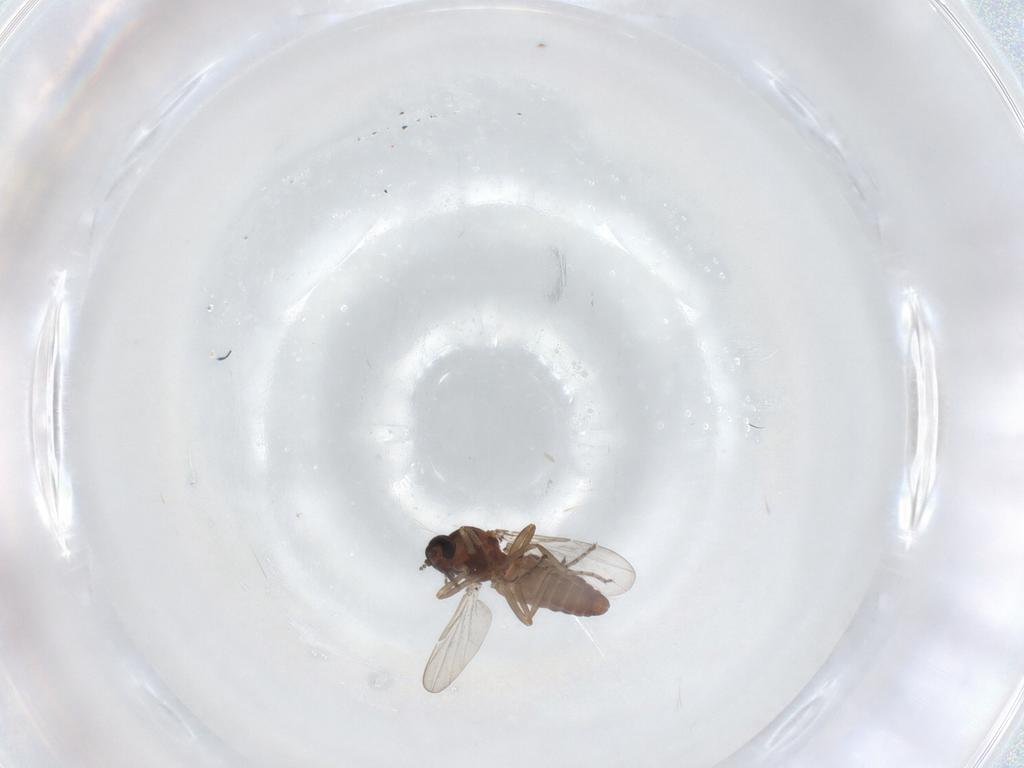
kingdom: Animalia
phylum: Arthropoda
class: Insecta
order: Diptera
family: Ceratopogonidae
